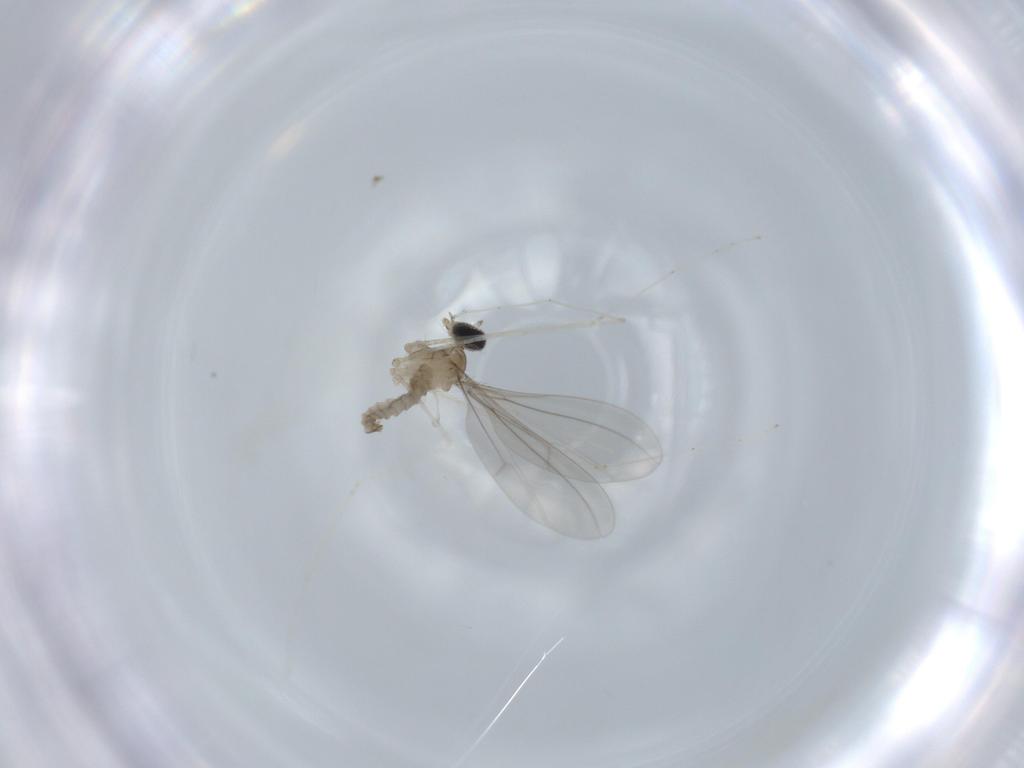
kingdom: Animalia
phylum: Arthropoda
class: Insecta
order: Diptera
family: Cecidomyiidae
